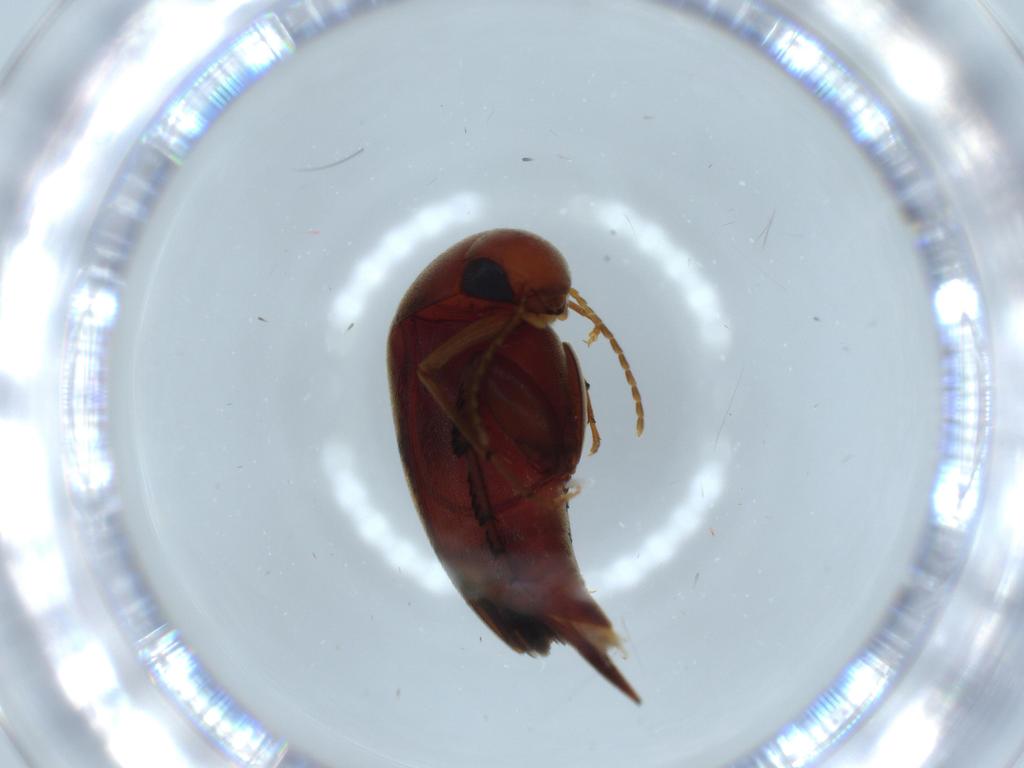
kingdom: Animalia
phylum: Arthropoda
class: Insecta
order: Coleoptera
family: Mordellidae
